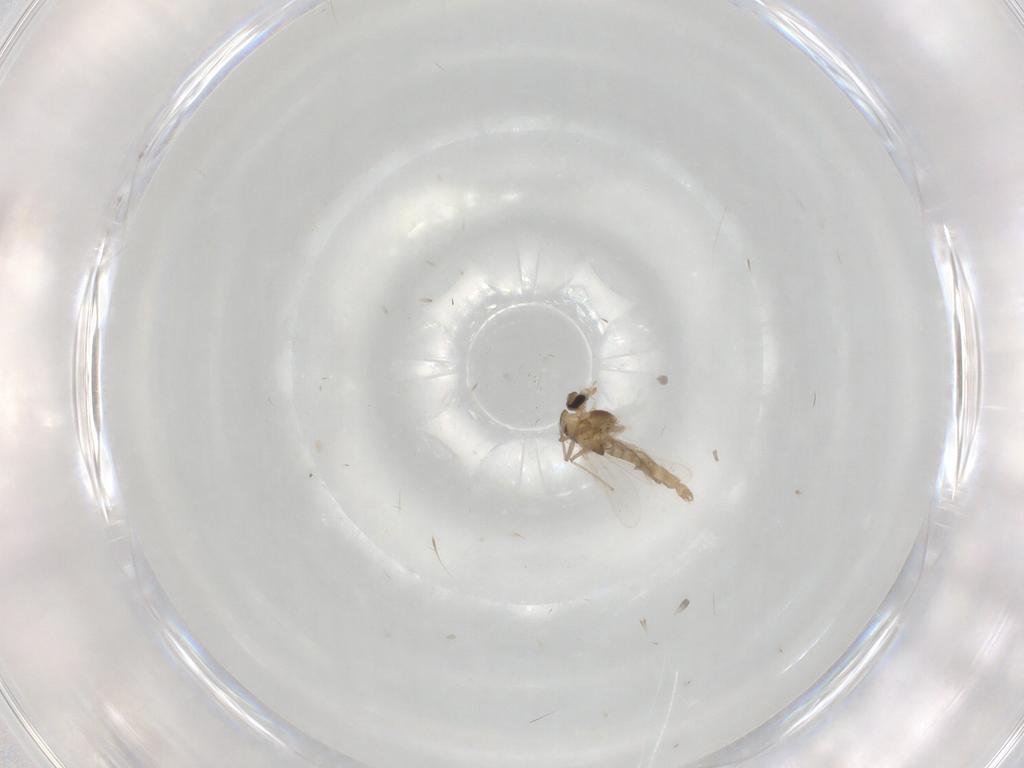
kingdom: Animalia
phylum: Arthropoda
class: Insecta
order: Diptera
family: Chironomidae
